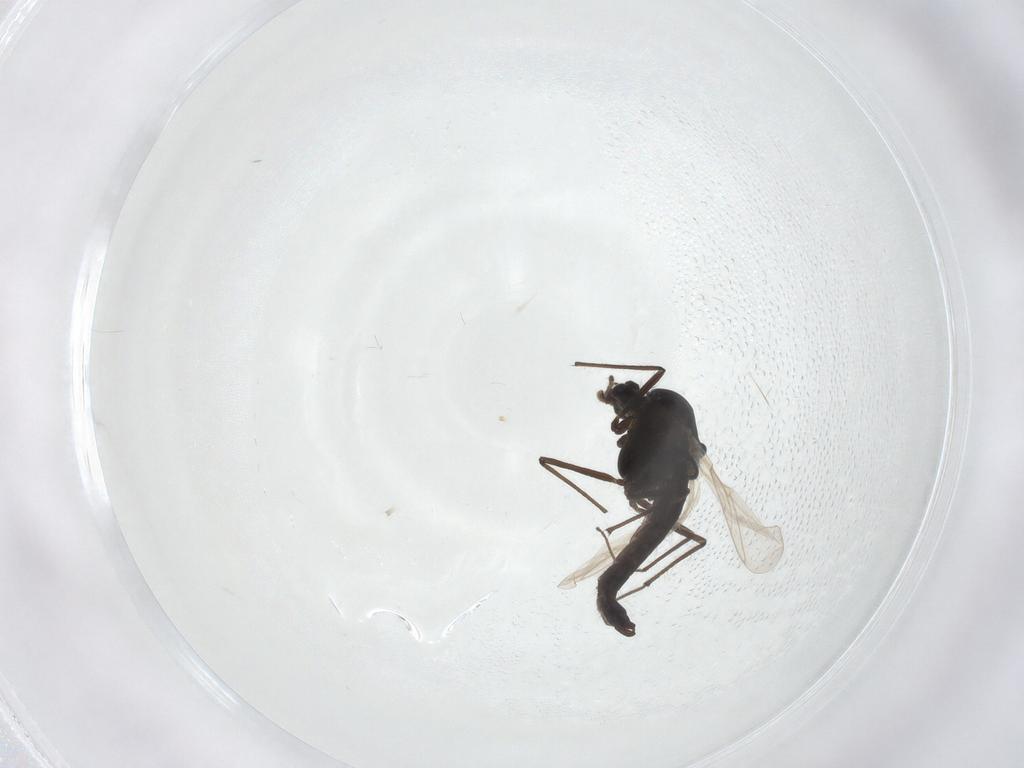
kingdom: Animalia
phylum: Arthropoda
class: Insecta
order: Diptera
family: Chironomidae
